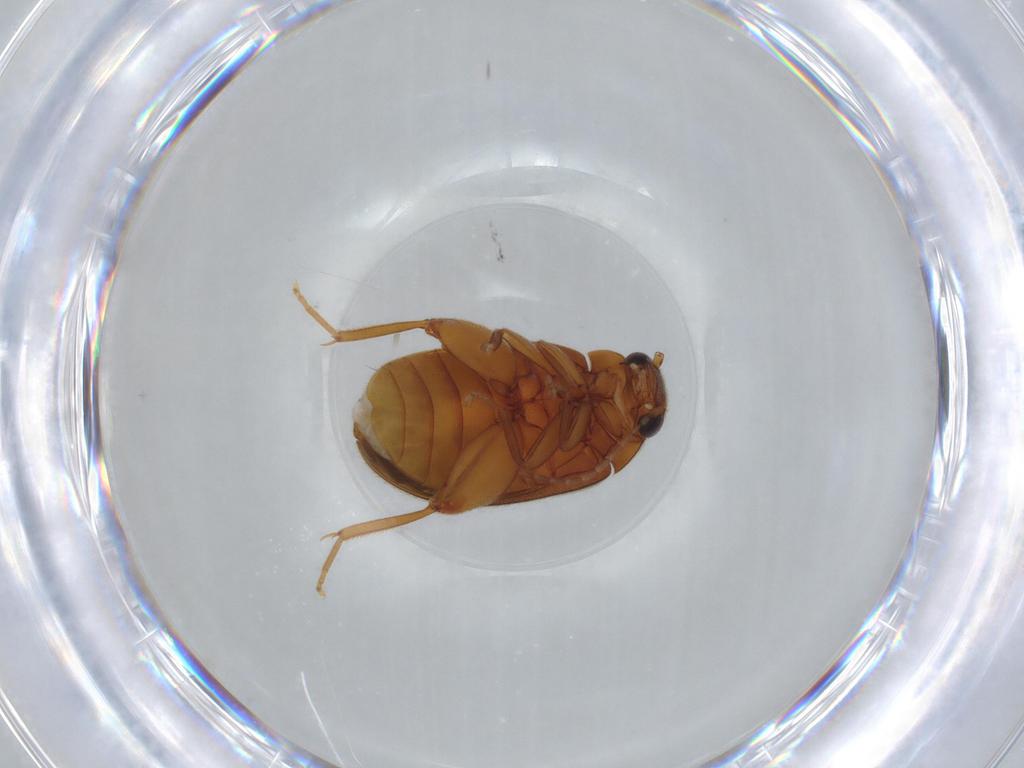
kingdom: Animalia
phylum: Arthropoda
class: Insecta
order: Coleoptera
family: Scirtidae
